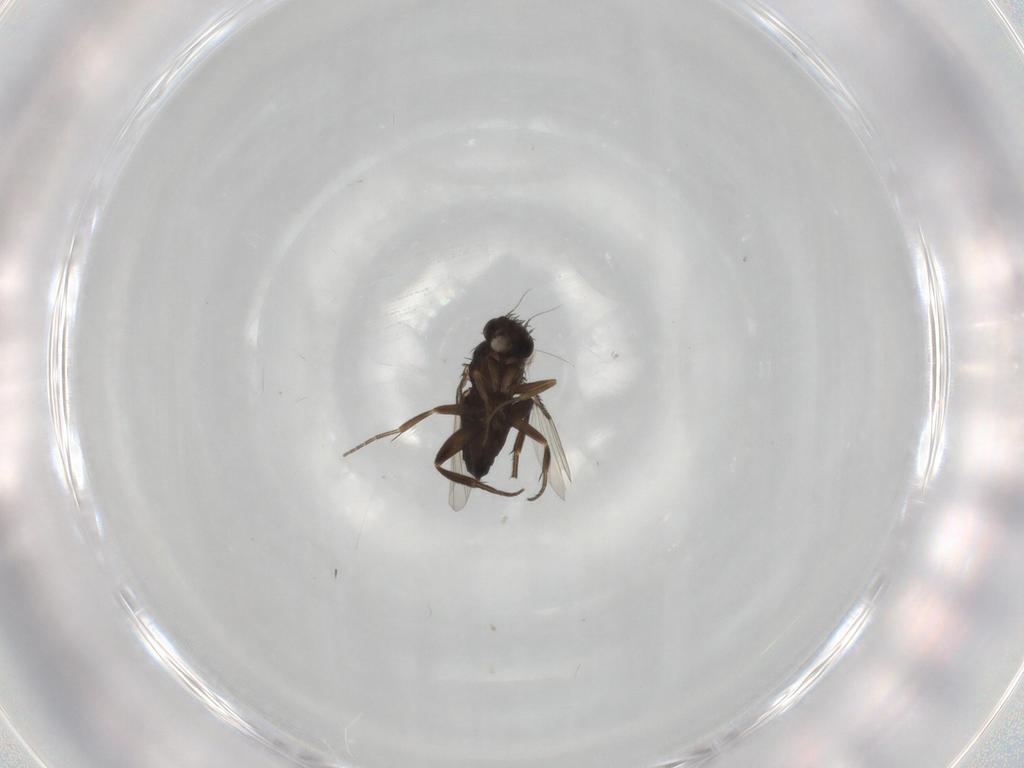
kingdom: Animalia
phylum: Arthropoda
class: Insecta
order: Diptera
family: Phoridae
